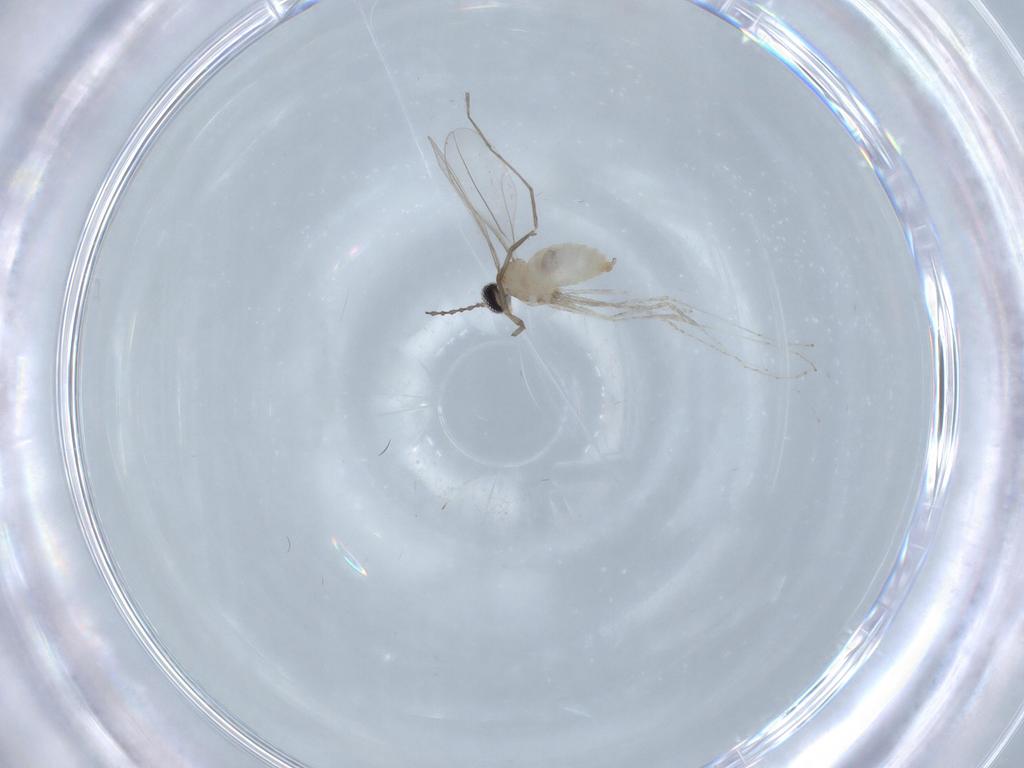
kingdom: Animalia
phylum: Arthropoda
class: Insecta
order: Diptera
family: Cecidomyiidae
